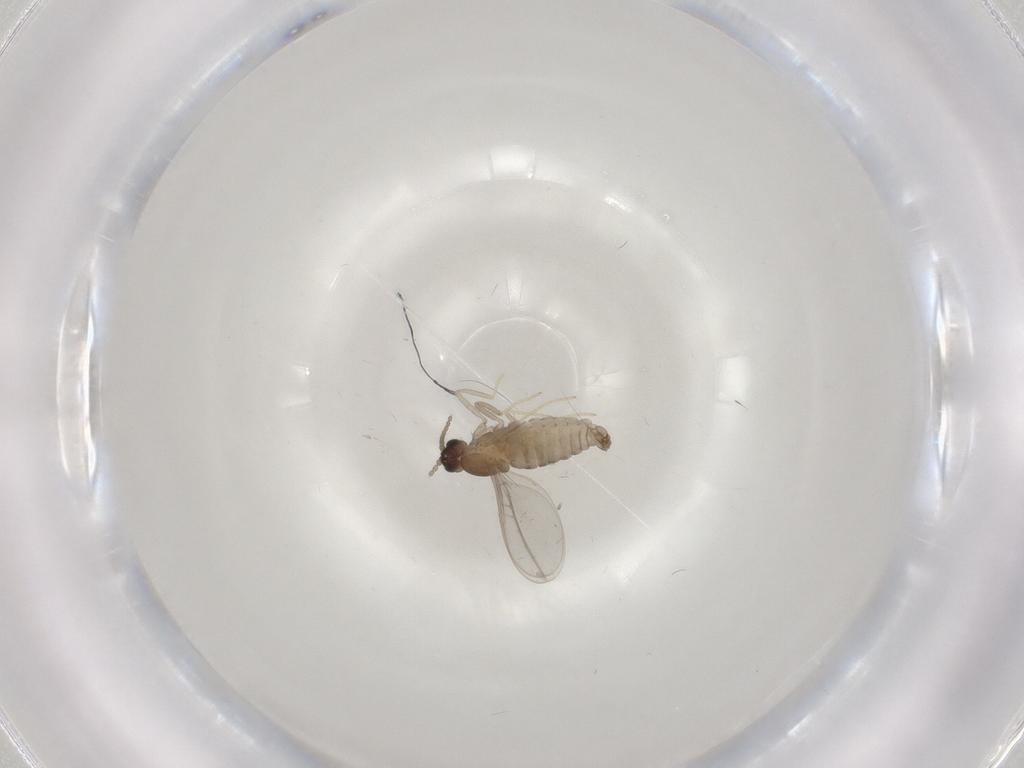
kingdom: Animalia
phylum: Arthropoda
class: Insecta
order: Diptera
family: Cecidomyiidae
